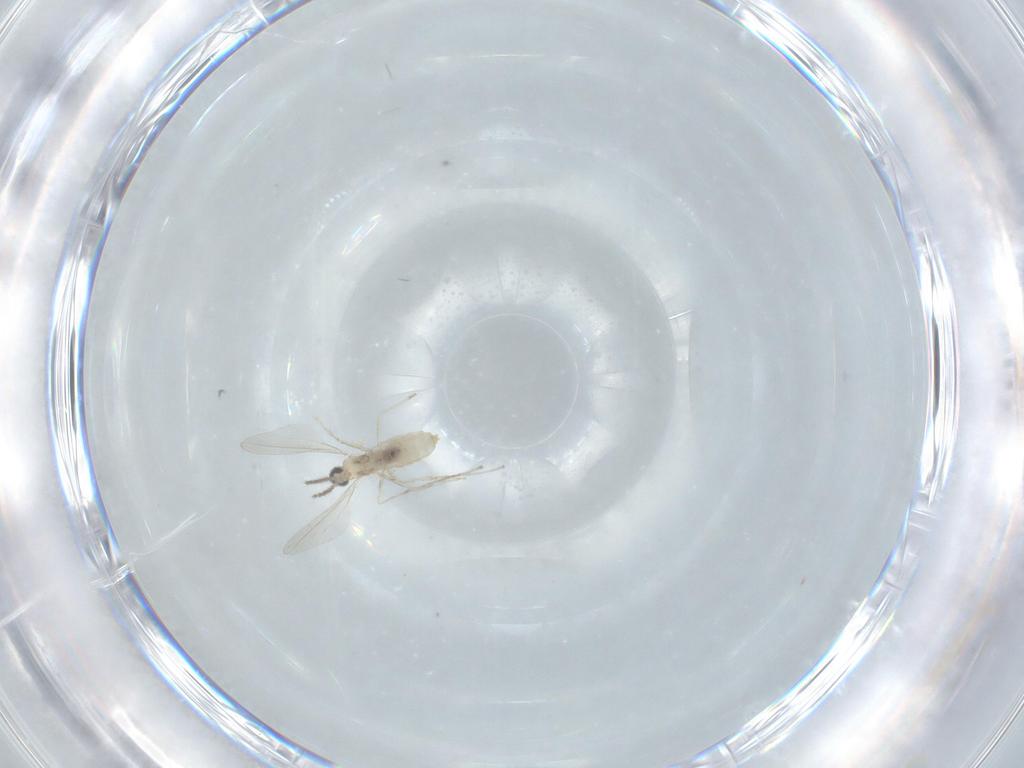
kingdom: Animalia
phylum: Arthropoda
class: Insecta
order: Diptera
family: Cecidomyiidae
